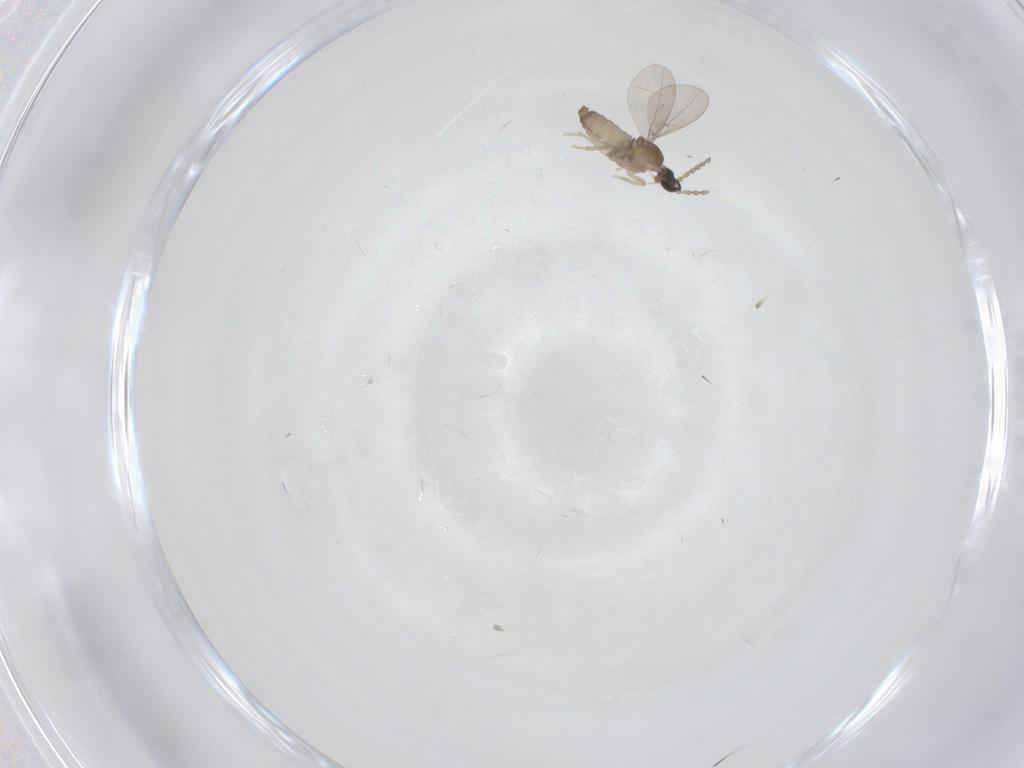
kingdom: Animalia
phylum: Arthropoda
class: Insecta
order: Diptera
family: Cecidomyiidae
